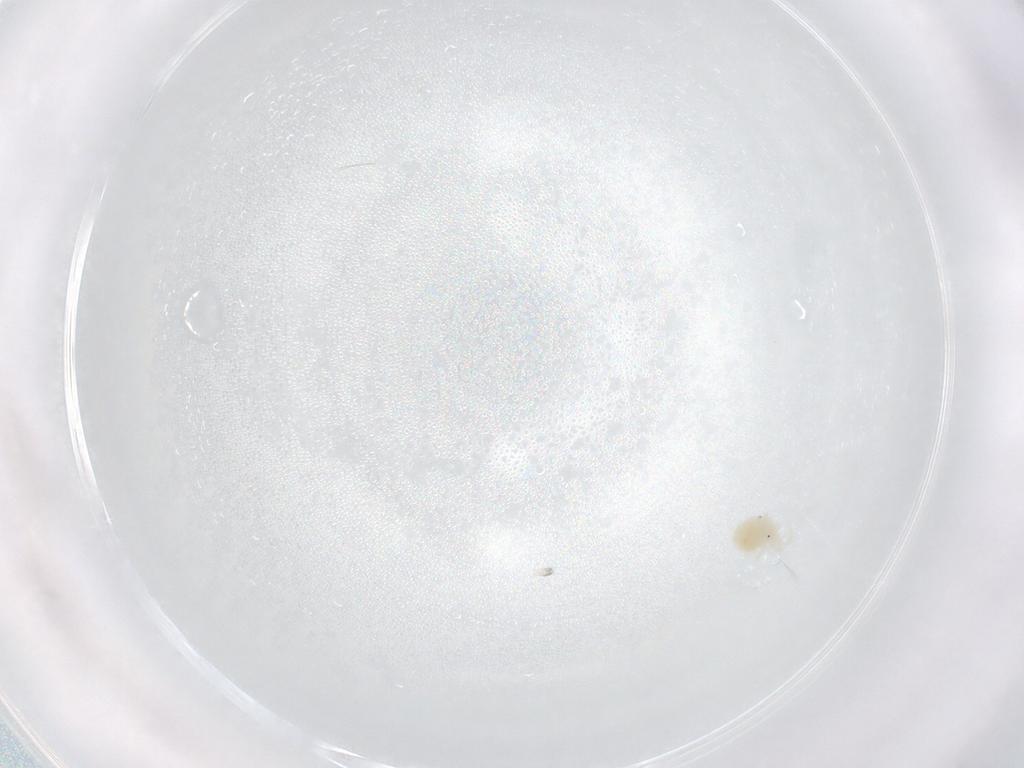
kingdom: Animalia
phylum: Arthropoda
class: Arachnida
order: Trombidiformes
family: Anystidae
